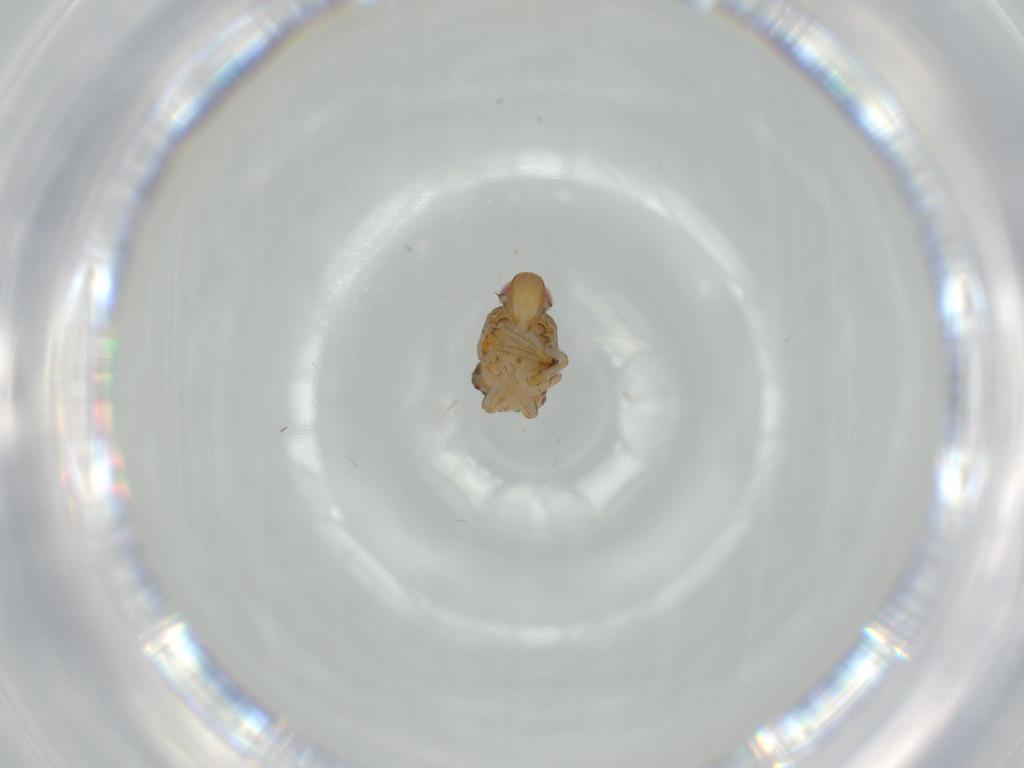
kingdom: Animalia
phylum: Arthropoda
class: Insecta
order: Hemiptera
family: Issidae
